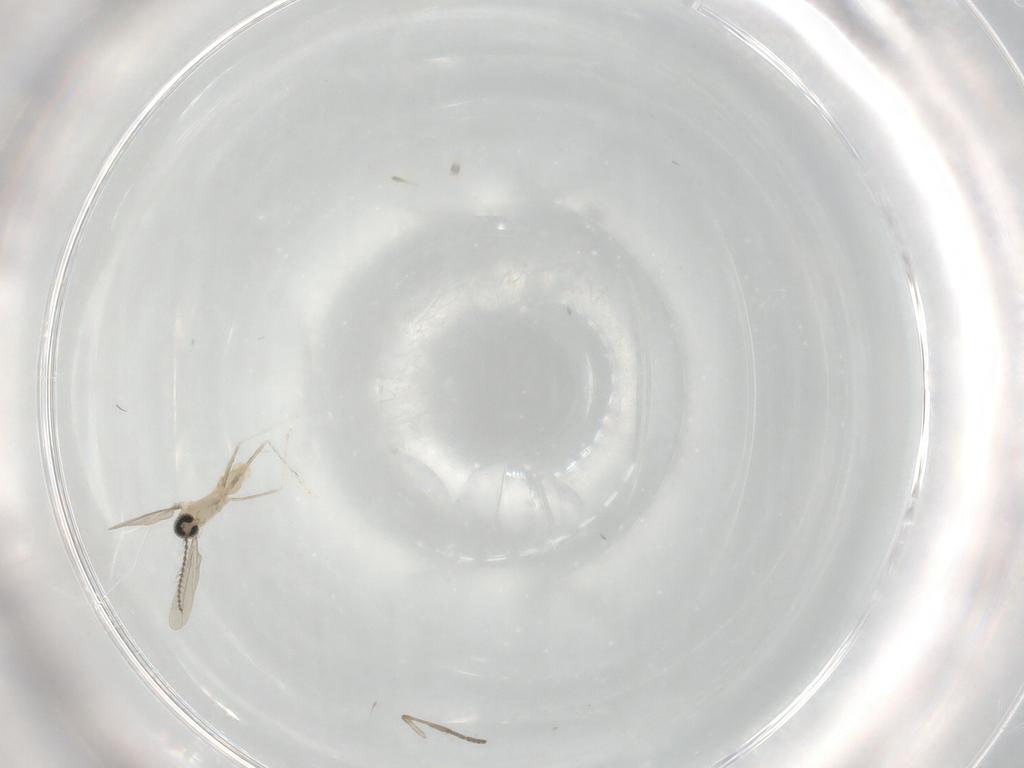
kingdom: Animalia
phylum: Arthropoda
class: Insecta
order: Diptera
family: Cecidomyiidae
